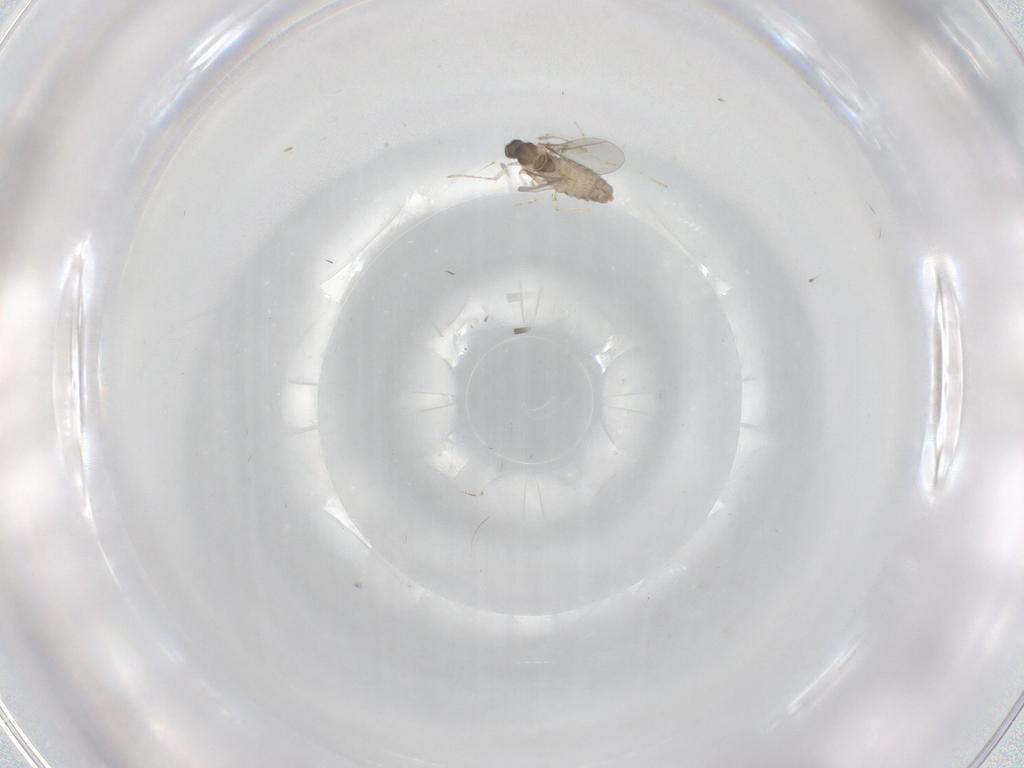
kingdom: Animalia
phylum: Arthropoda
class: Insecta
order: Diptera
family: Cecidomyiidae
